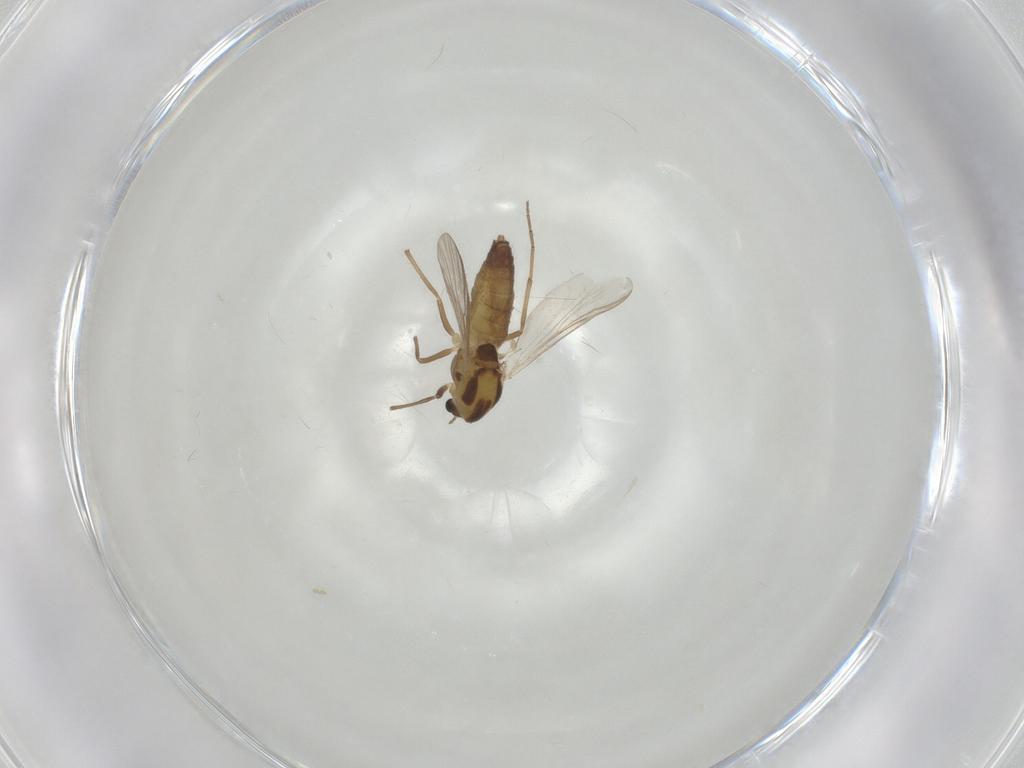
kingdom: Animalia
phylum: Arthropoda
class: Insecta
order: Diptera
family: Chironomidae
